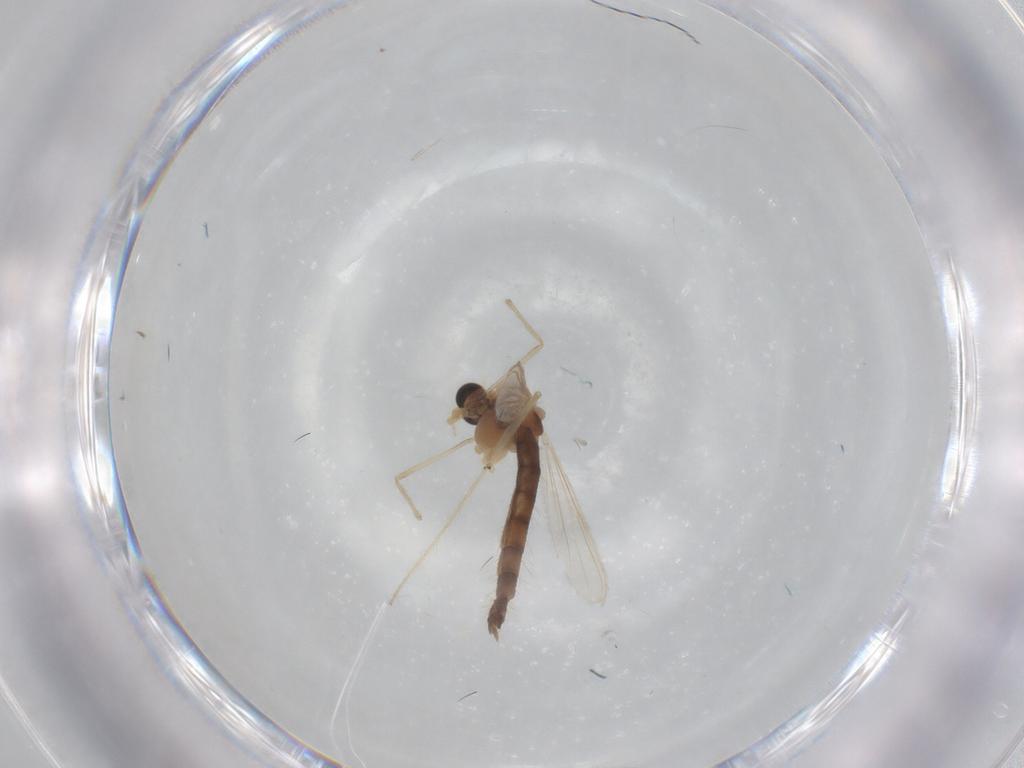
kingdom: Animalia
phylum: Arthropoda
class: Insecta
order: Diptera
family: Chironomidae
